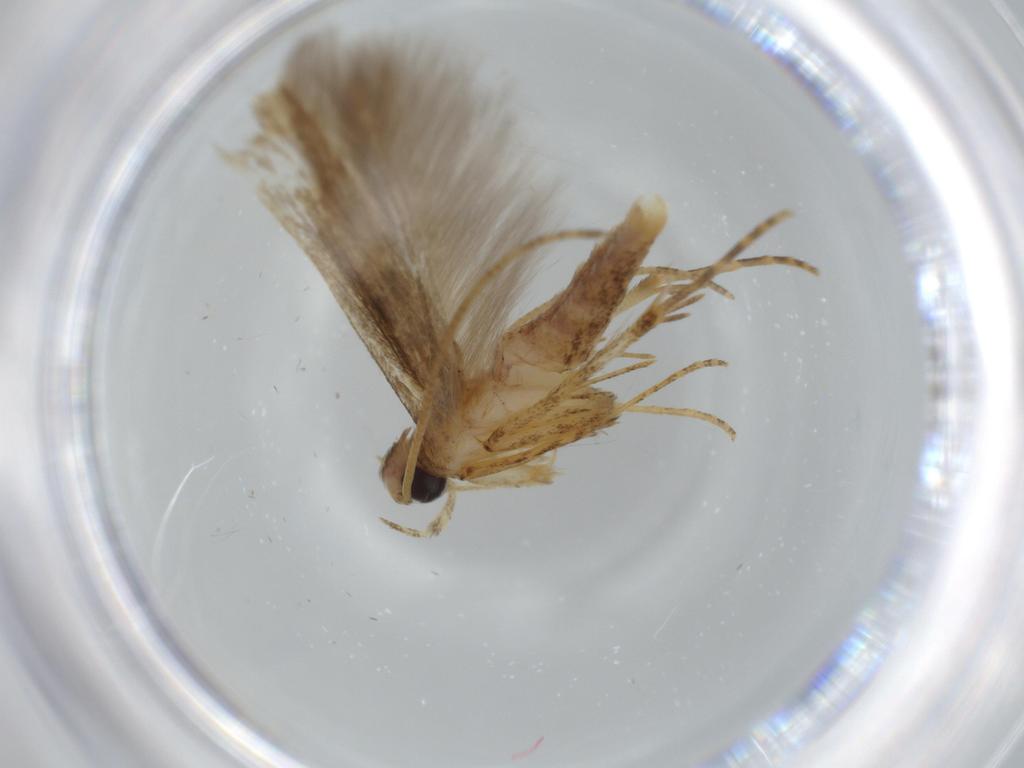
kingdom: Animalia
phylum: Arthropoda
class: Insecta
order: Lepidoptera
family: Batrachedridae
